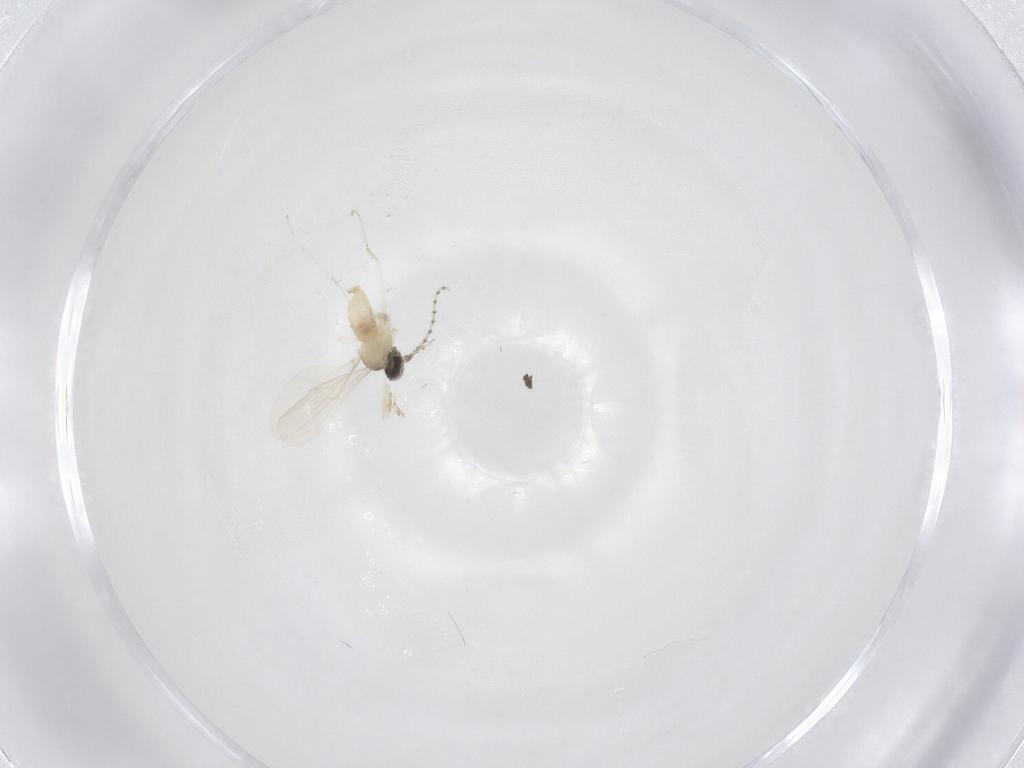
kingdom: Animalia
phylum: Arthropoda
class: Insecta
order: Diptera
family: Cecidomyiidae
